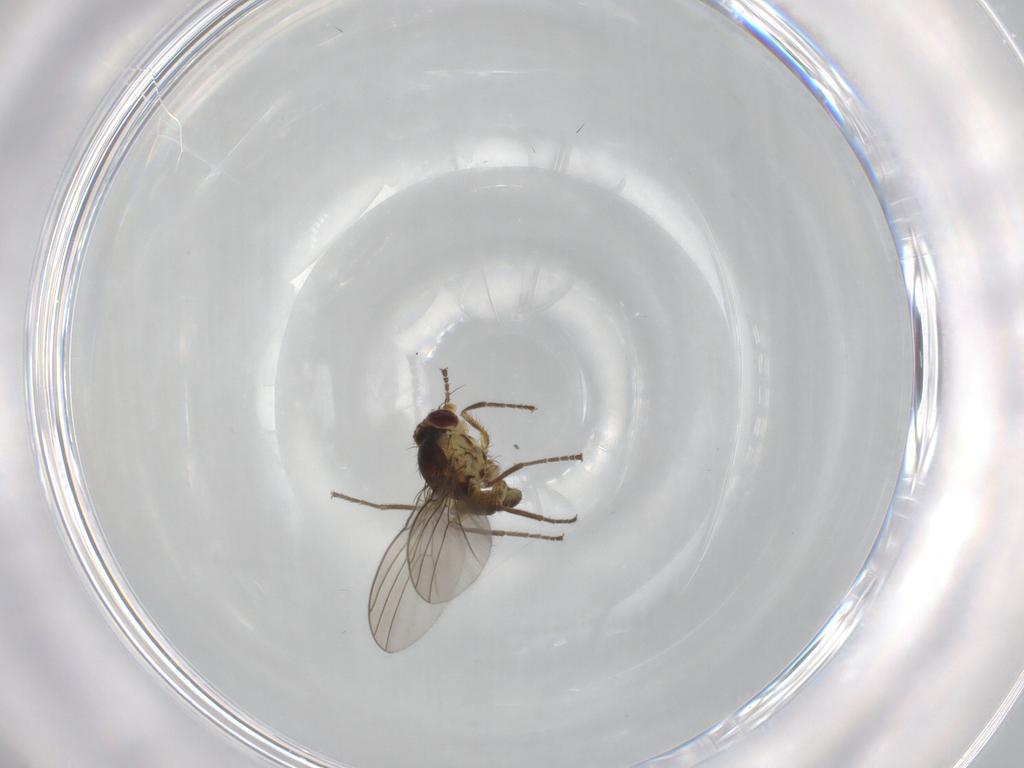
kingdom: Animalia
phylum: Arthropoda
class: Insecta
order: Diptera
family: Agromyzidae
